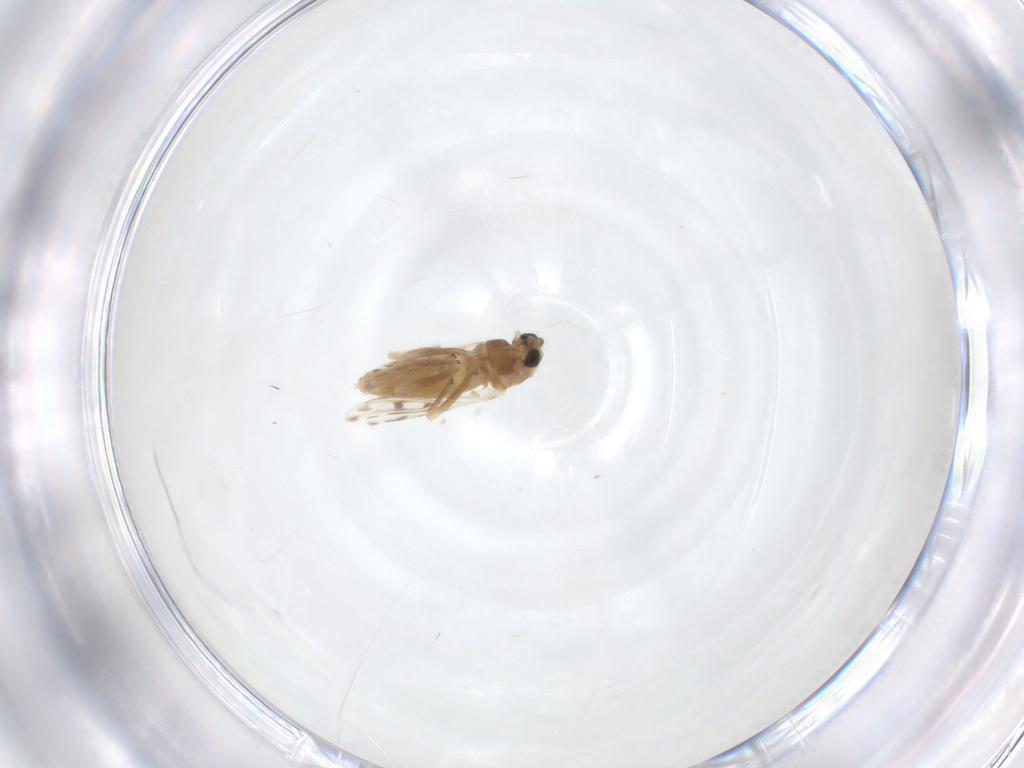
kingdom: Animalia
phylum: Arthropoda
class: Insecta
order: Diptera
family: Cecidomyiidae
